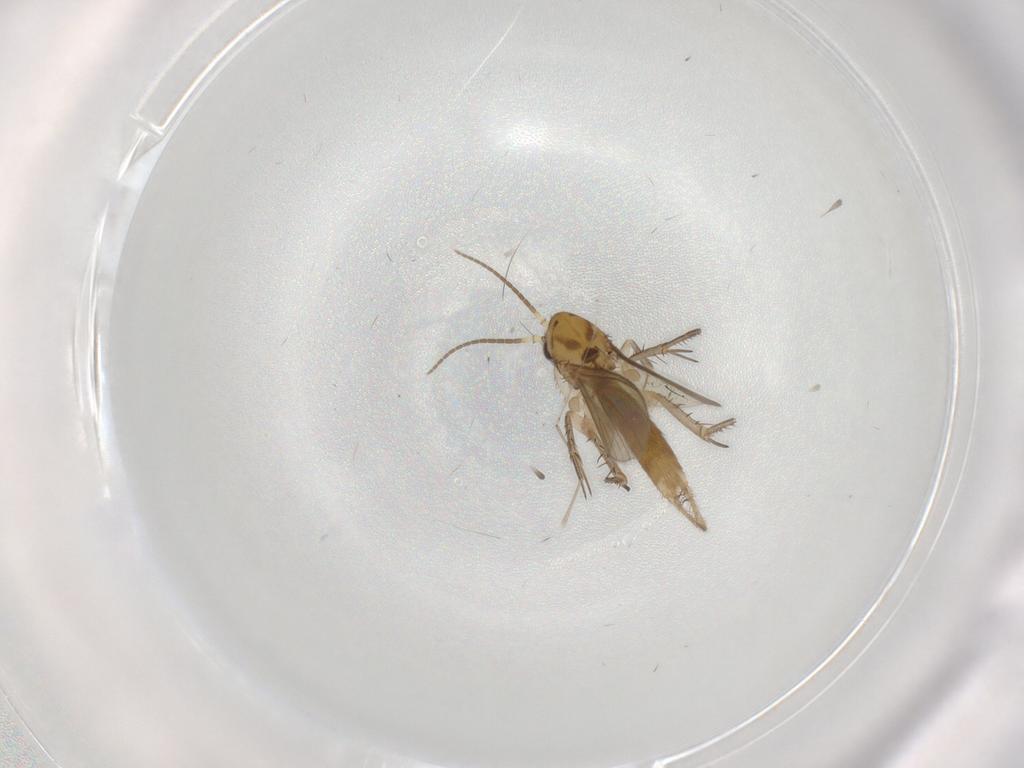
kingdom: Animalia
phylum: Arthropoda
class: Insecta
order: Diptera
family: Mycetophilidae
